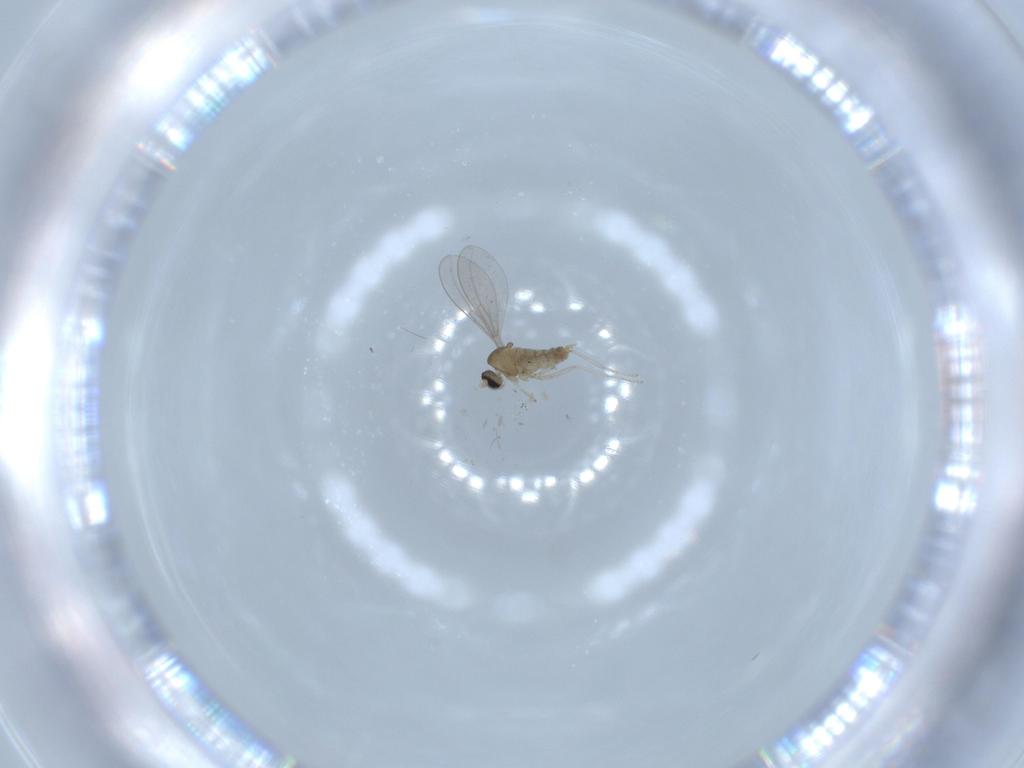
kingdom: Animalia
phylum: Arthropoda
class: Insecta
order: Diptera
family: Cecidomyiidae
